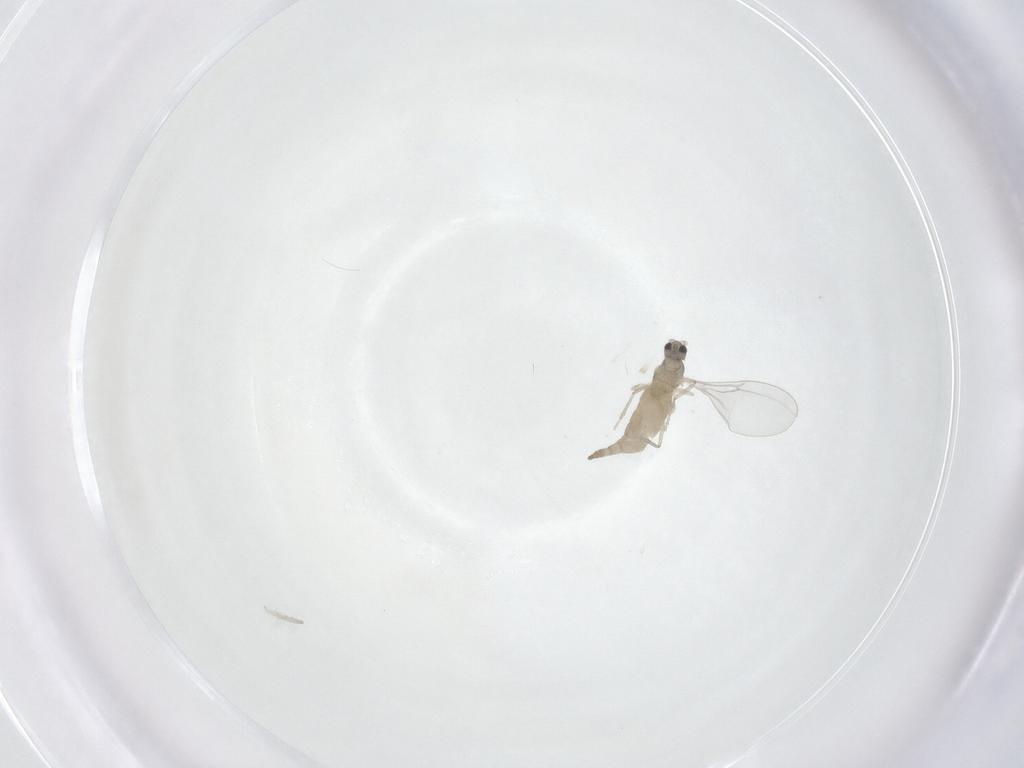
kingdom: Animalia
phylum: Arthropoda
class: Insecta
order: Diptera
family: Cecidomyiidae
